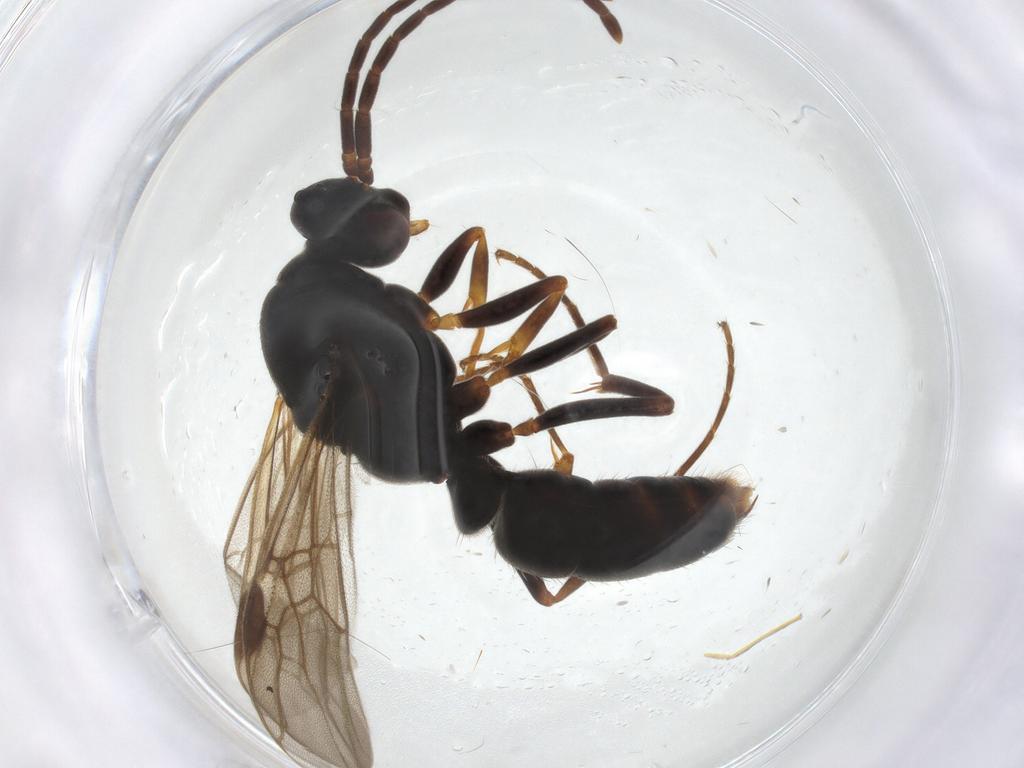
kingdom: Animalia
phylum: Arthropoda
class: Insecta
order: Hymenoptera
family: Formicidae
